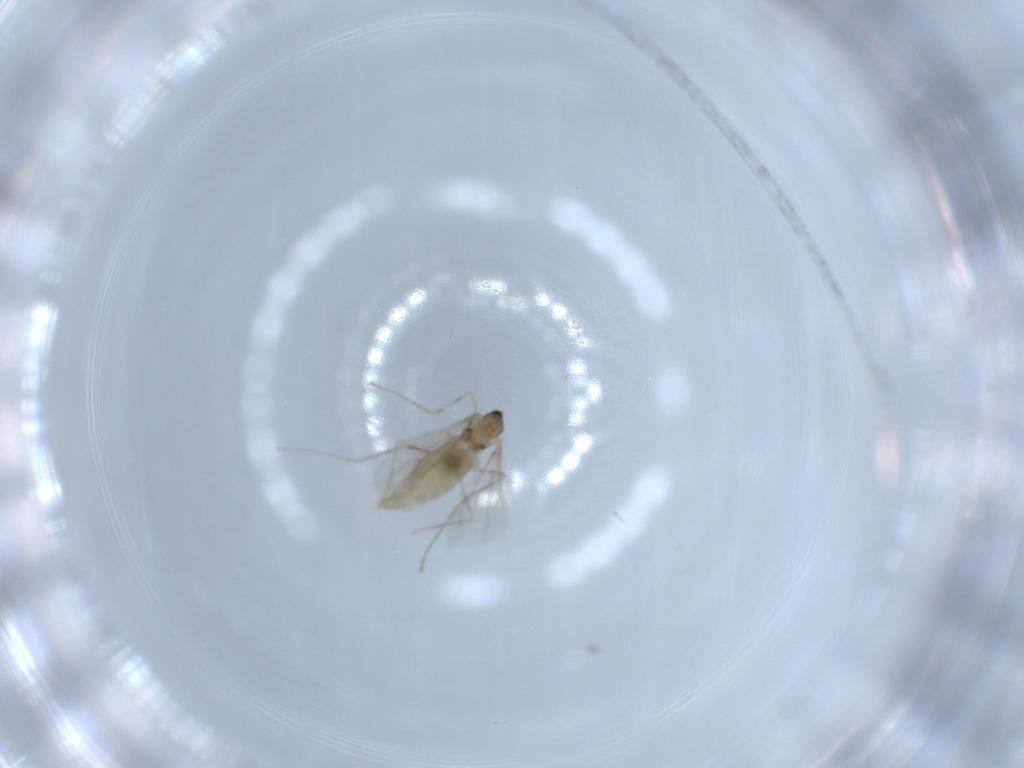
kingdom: Animalia
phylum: Arthropoda
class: Insecta
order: Diptera
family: Cecidomyiidae
